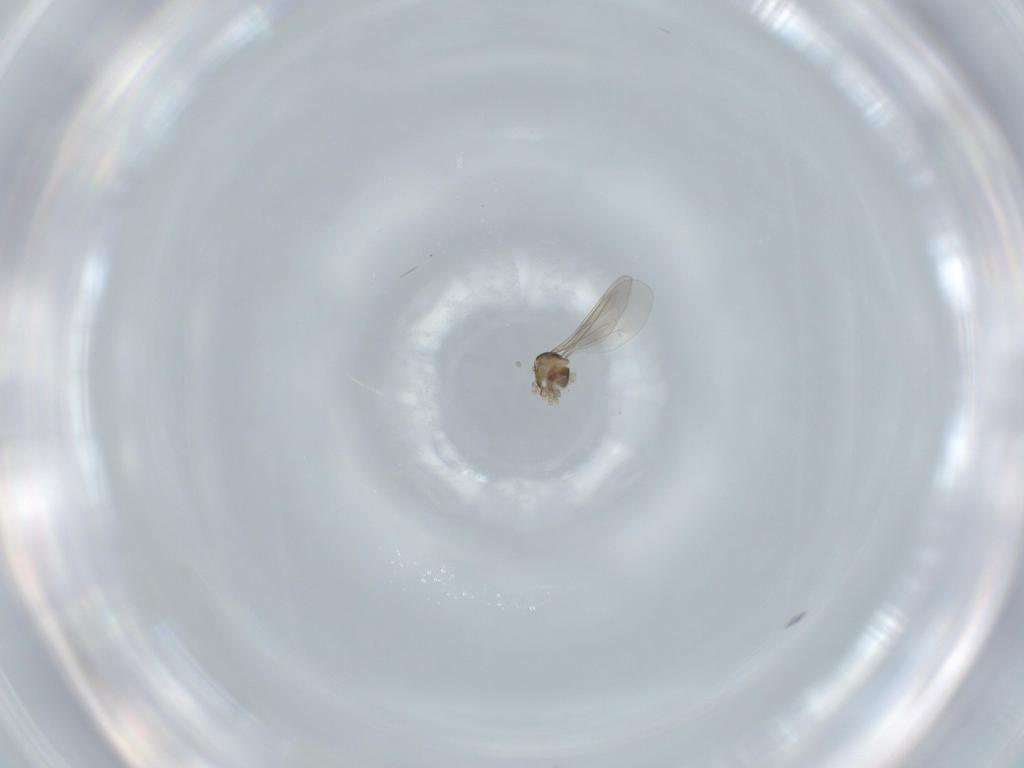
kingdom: Animalia
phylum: Arthropoda
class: Insecta
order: Diptera
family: Cecidomyiidae
